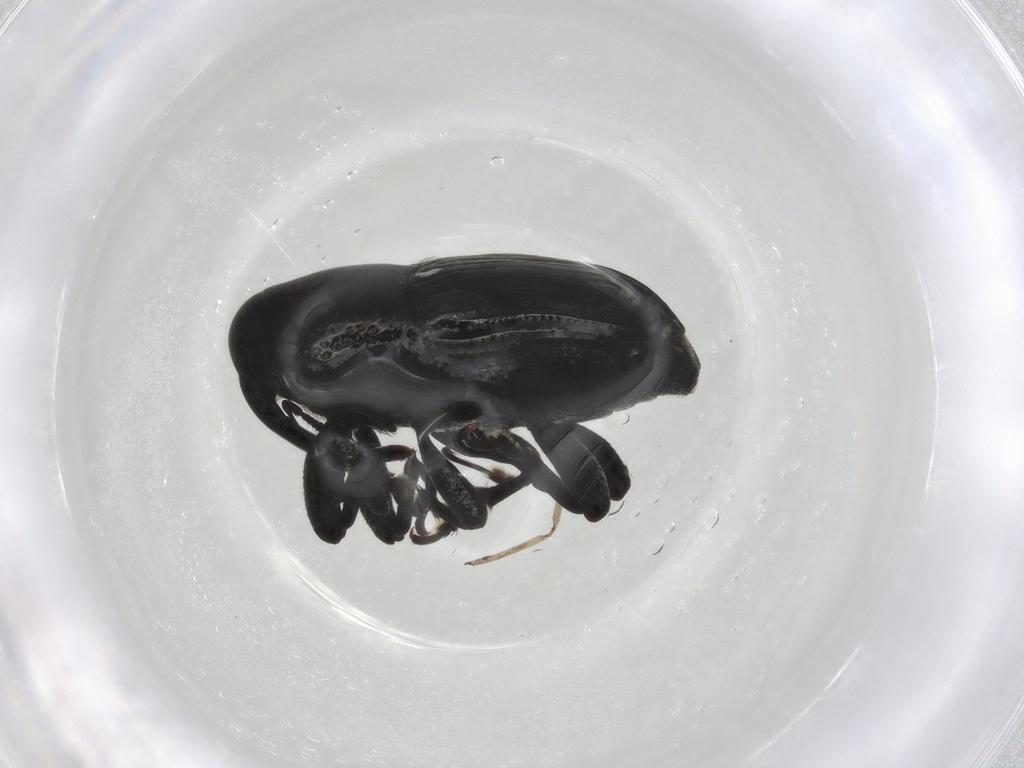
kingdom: Animalia
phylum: Arthropoda
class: Insecta
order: Coleoptera
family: Curculionidae
